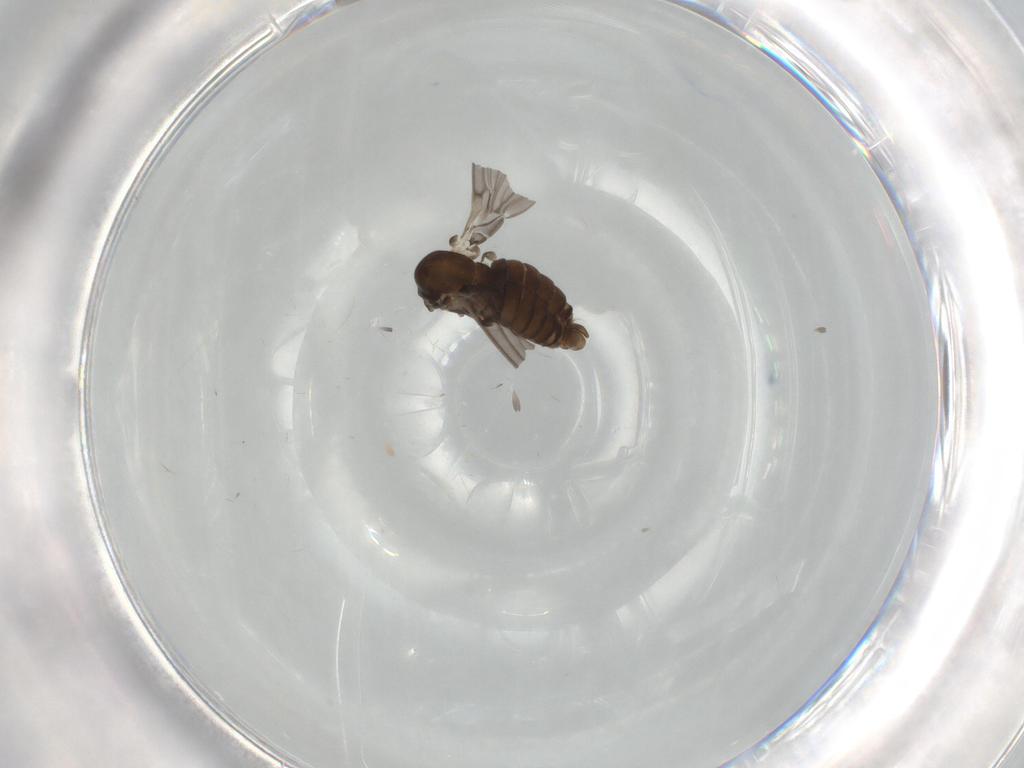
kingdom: Animalia
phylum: Arthropoda
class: Insecta
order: Diptera
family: Psychodidae
